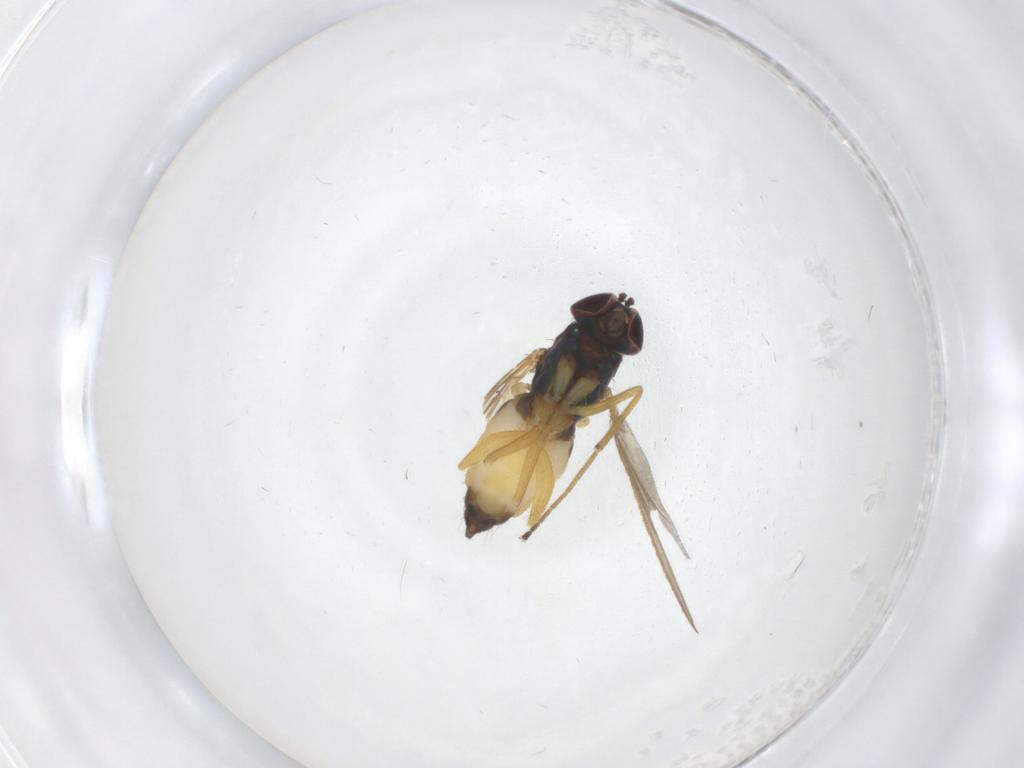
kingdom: Animalia
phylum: Arthropoda
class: Insecta
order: Diptera
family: Dolichopodidae
